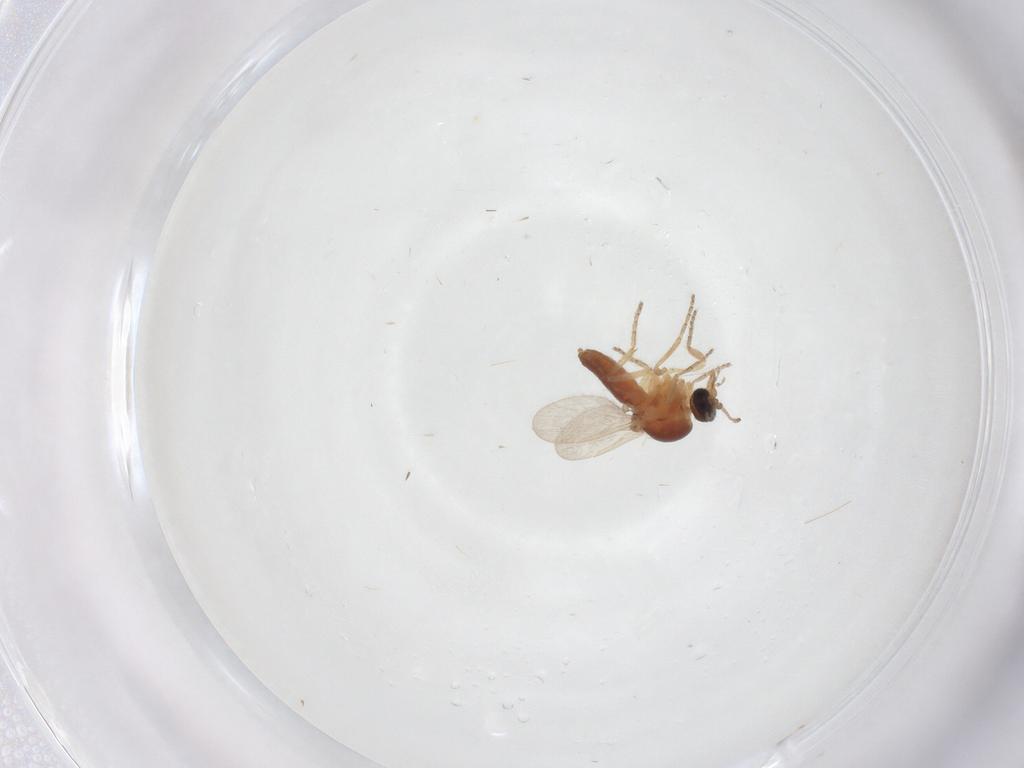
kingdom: Animalia
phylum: Arthropoda
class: Insecta
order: Diptera
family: Ceratopogonidae
